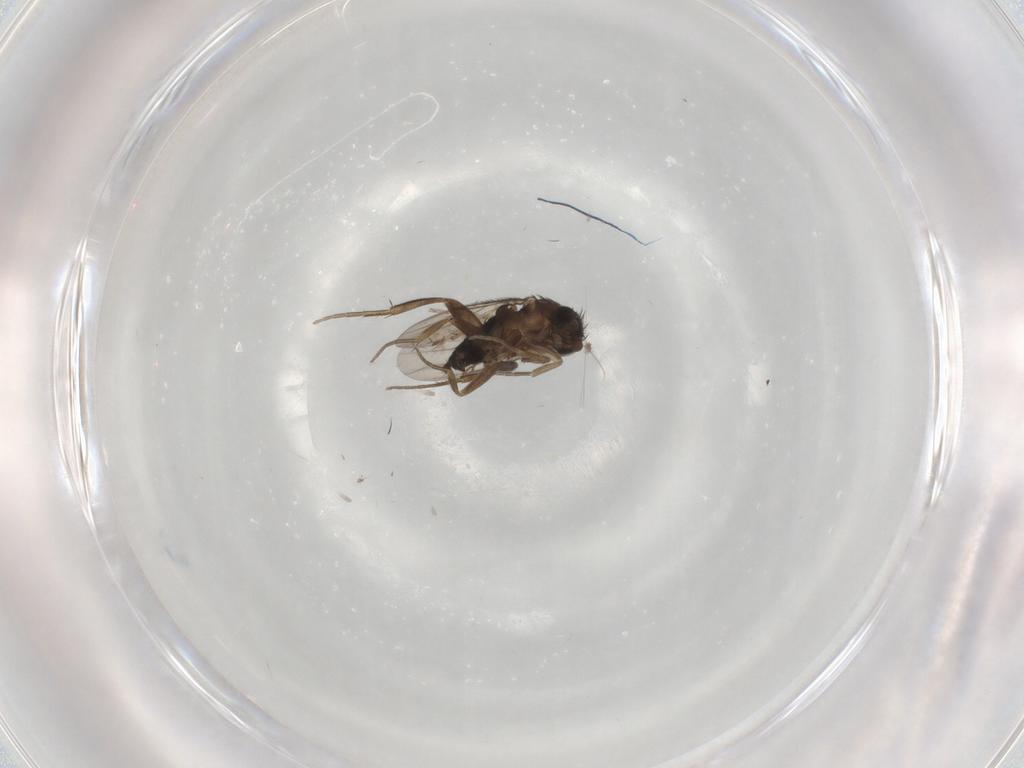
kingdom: Animalia
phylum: Arthropoda
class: Insecta
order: Diptera
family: Phoridae
